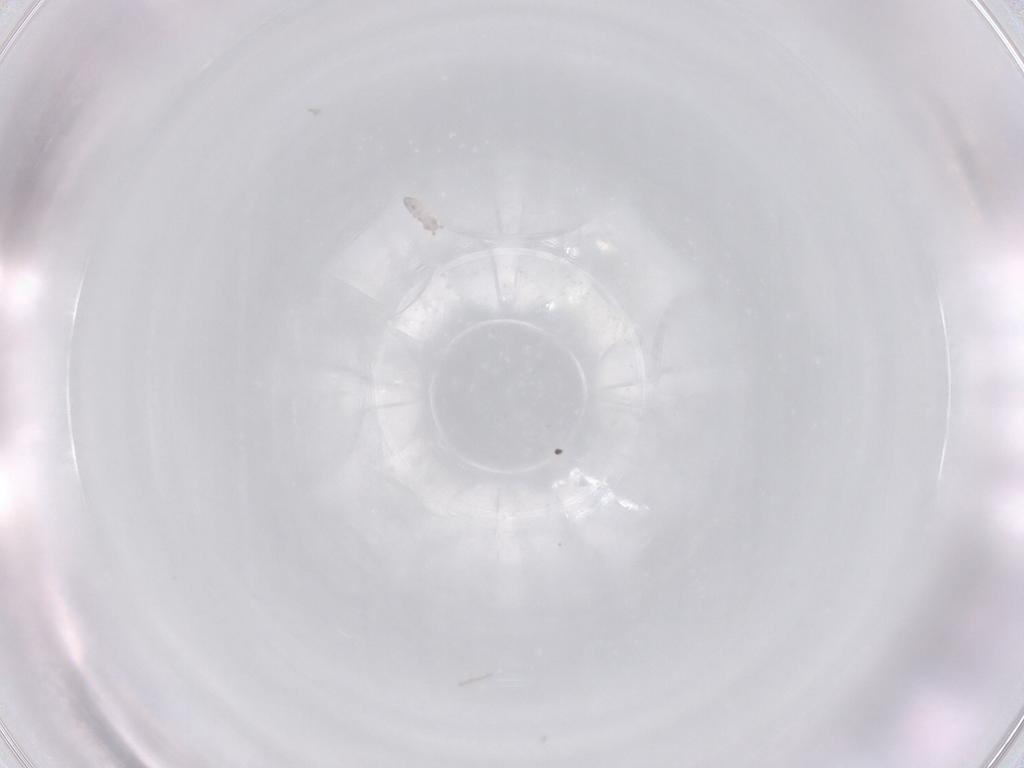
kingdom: Animalia
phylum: Arthropoda
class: Collembola
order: Poduromorpha
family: Hypogastruridae
